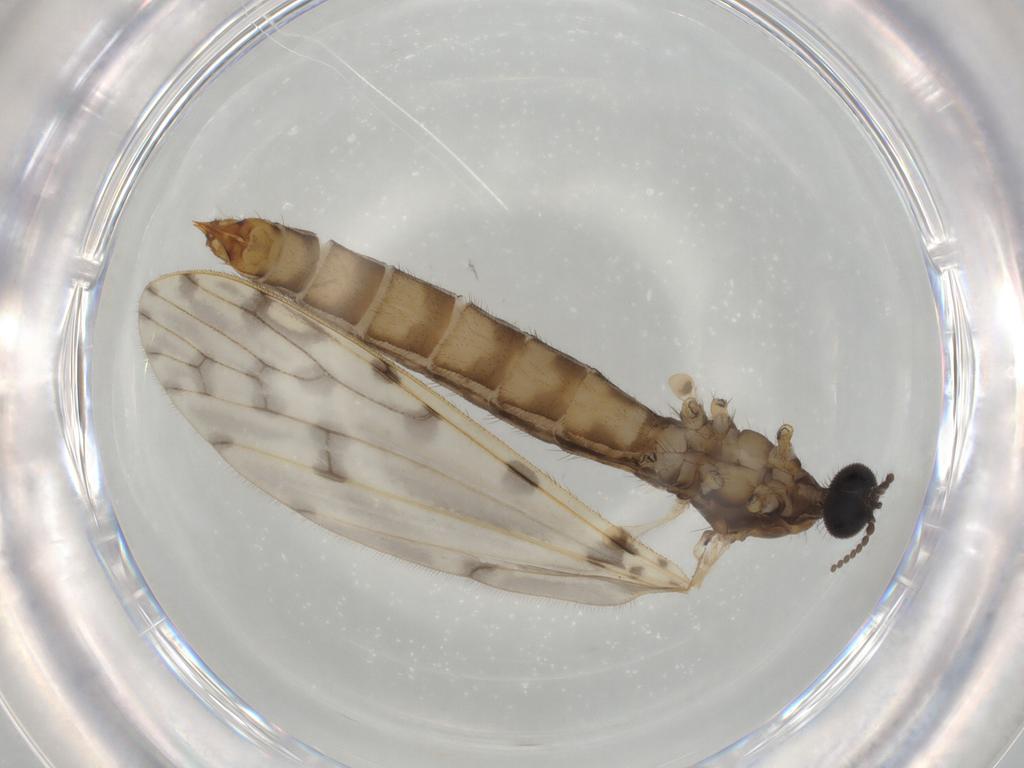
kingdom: Animalia
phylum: Arthropoda
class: Insecta
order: Diptera
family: Limoniidae
